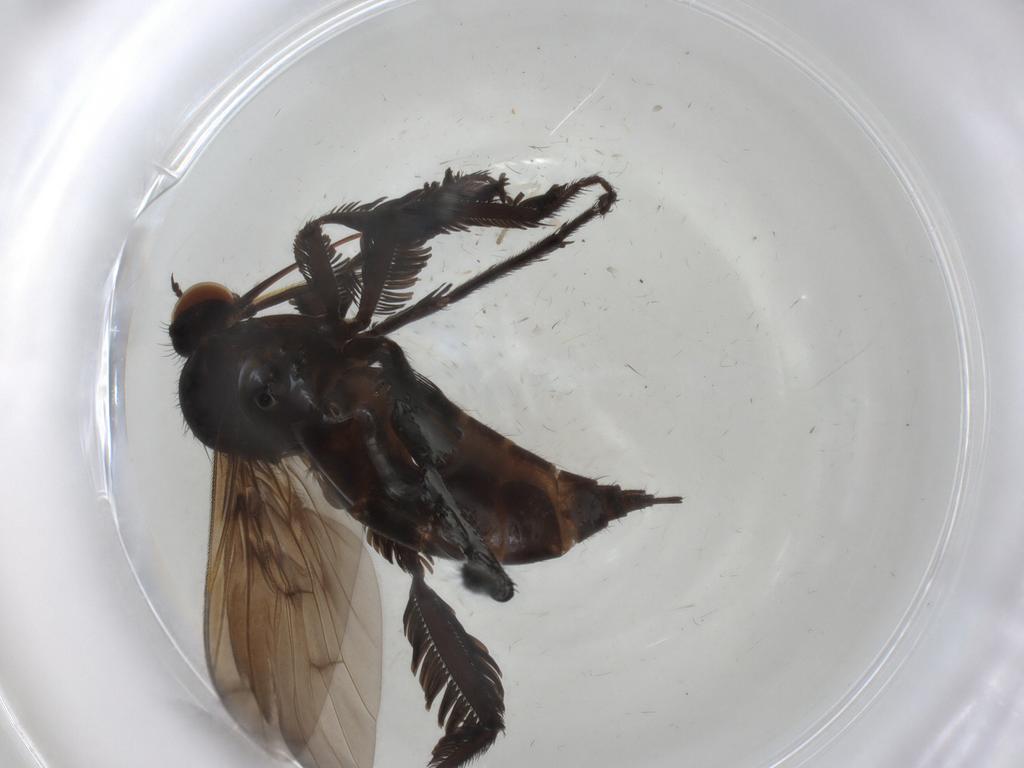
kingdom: Animalia
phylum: Arthropoda
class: Insecta
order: Diptera
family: Empididae
